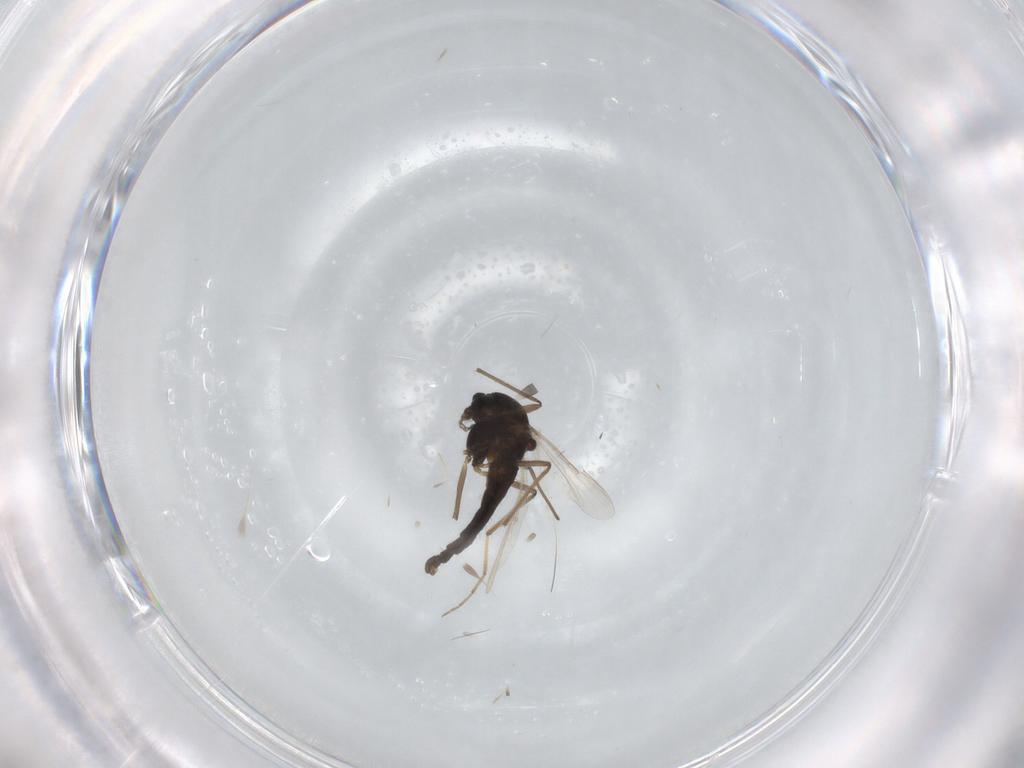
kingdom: Animalia
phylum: Arthropoda
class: Insecta
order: Diptera
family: Chironomidae
